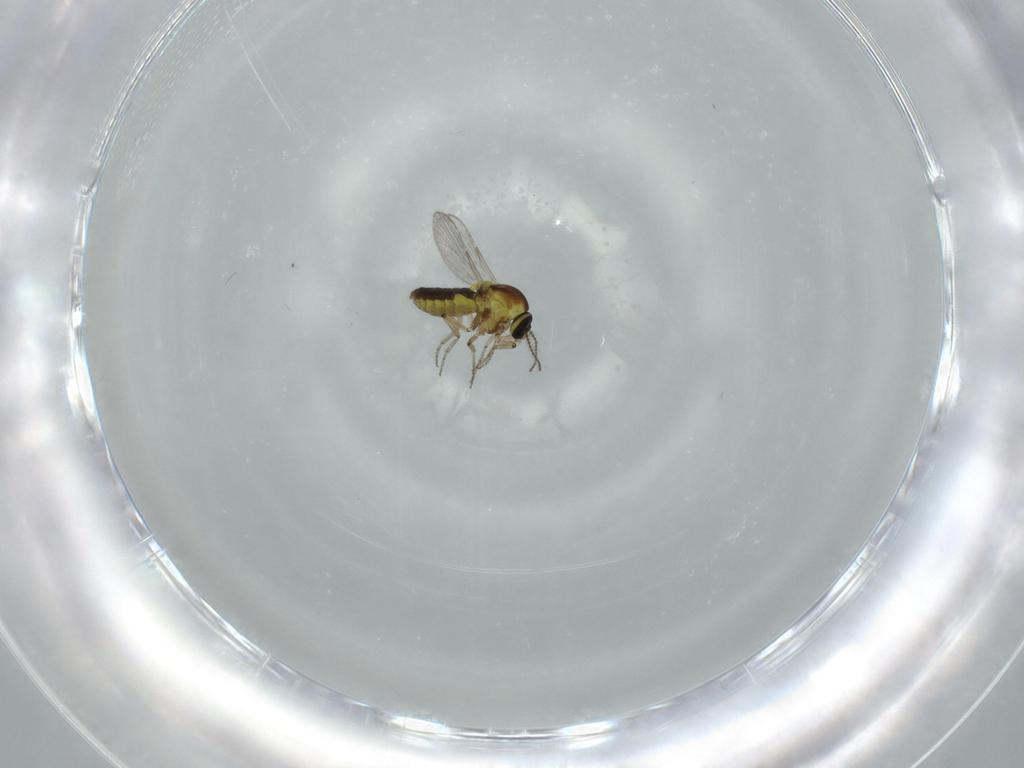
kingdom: Animalia
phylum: Arthropoda
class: Insecta
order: Diptera
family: Ceratopogonidae
